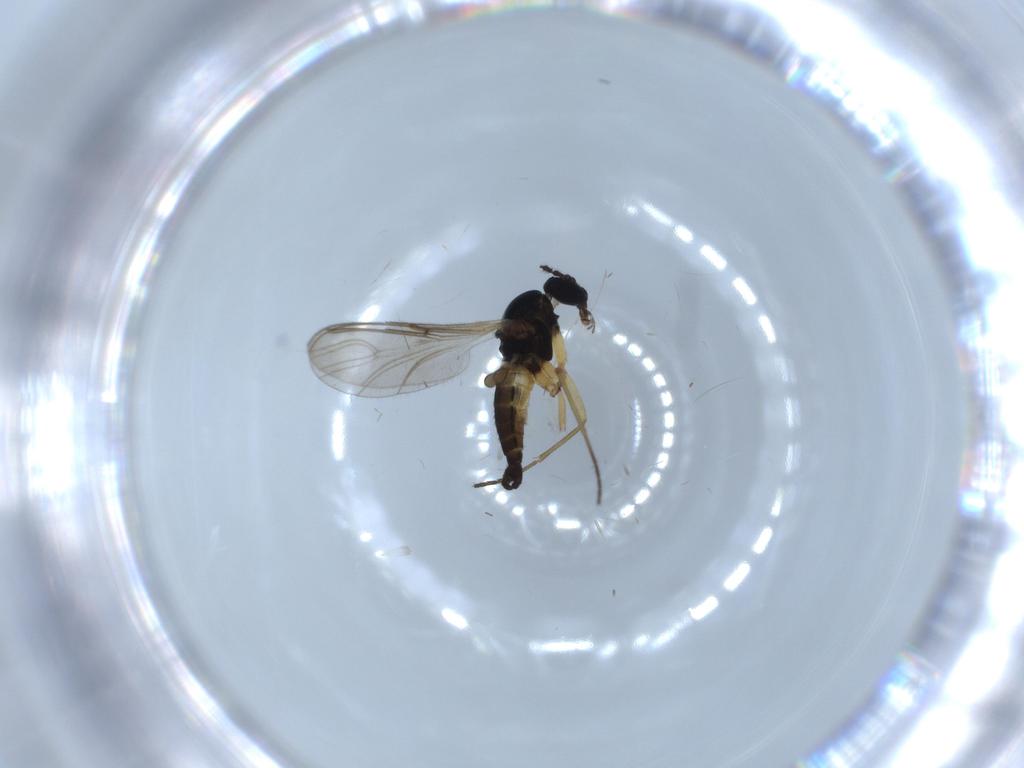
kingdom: Animalia
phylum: Arthropoda
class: Insecta
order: Diptera
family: Sciaridae
